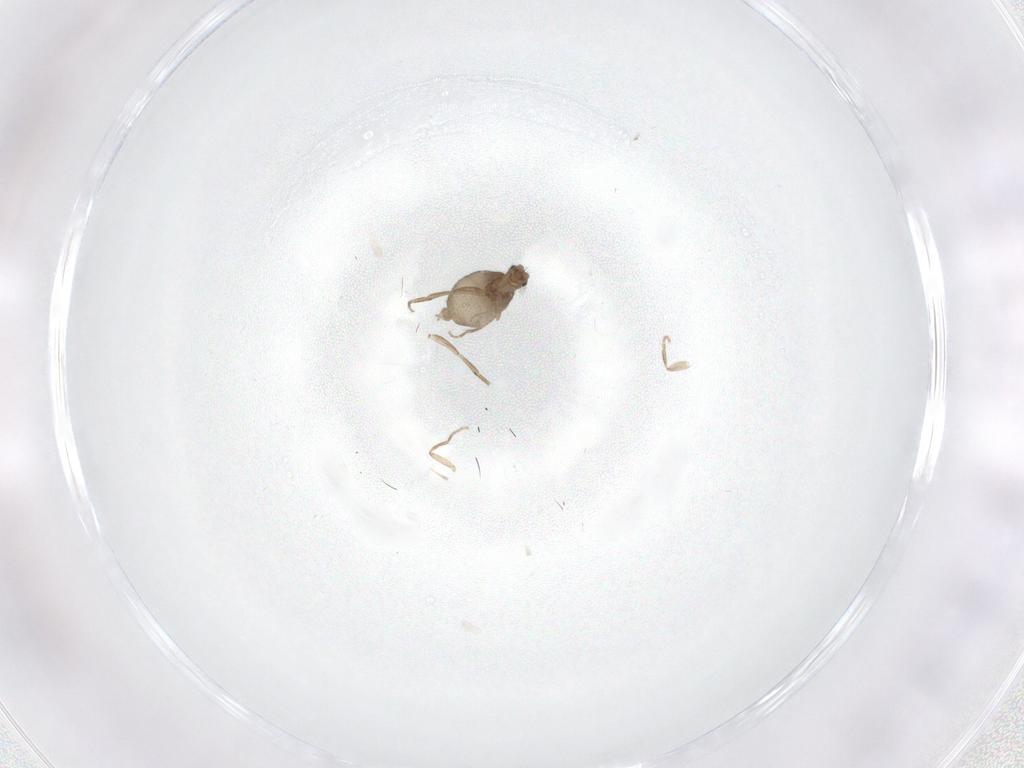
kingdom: Animalia
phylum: Arthropoda
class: Insecta
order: Diptera
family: Phoridae
